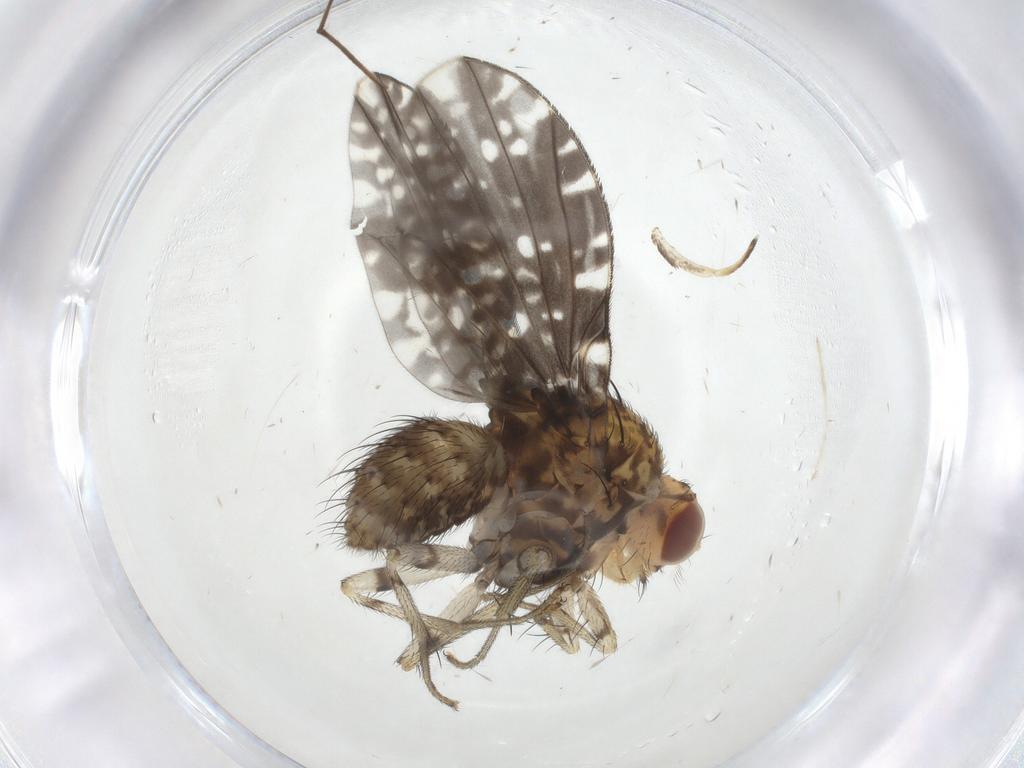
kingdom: Animalia
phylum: Arthropoda
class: Insecta
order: Diptera
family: Lauxaniidae
